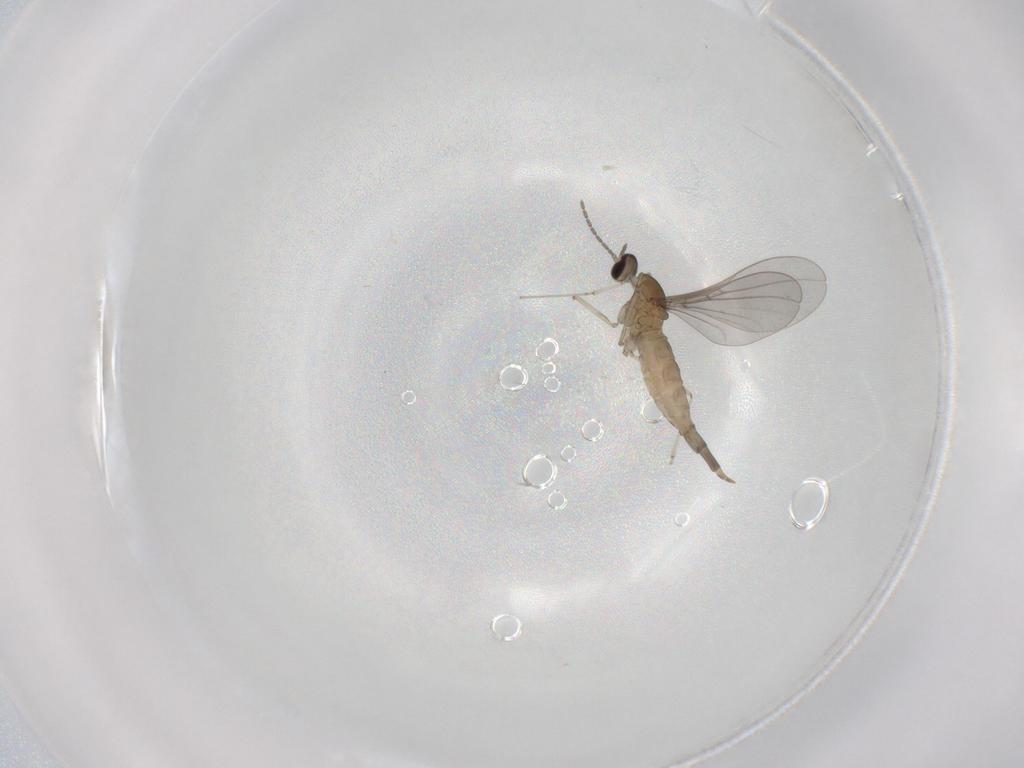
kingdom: Animalia
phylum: Arthropoda
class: Insecta
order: Diptera
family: Cecidomyiidae
